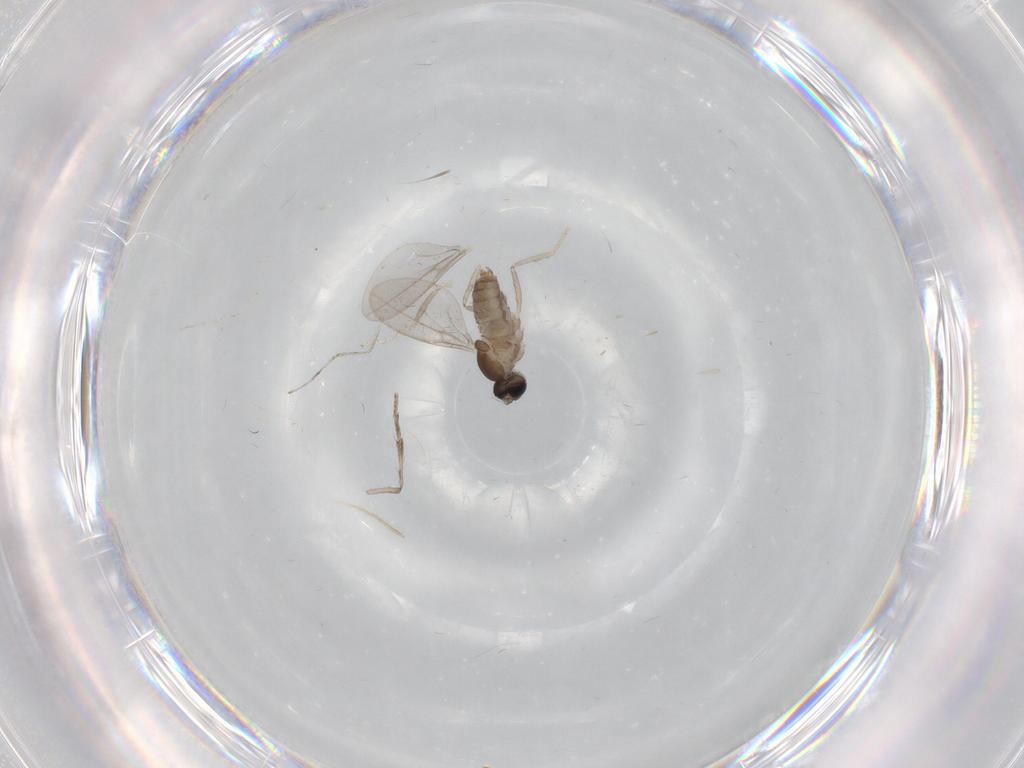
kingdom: Animalia
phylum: Arthropoda
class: Insecta
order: Diptera
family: Cecidomyiidae
